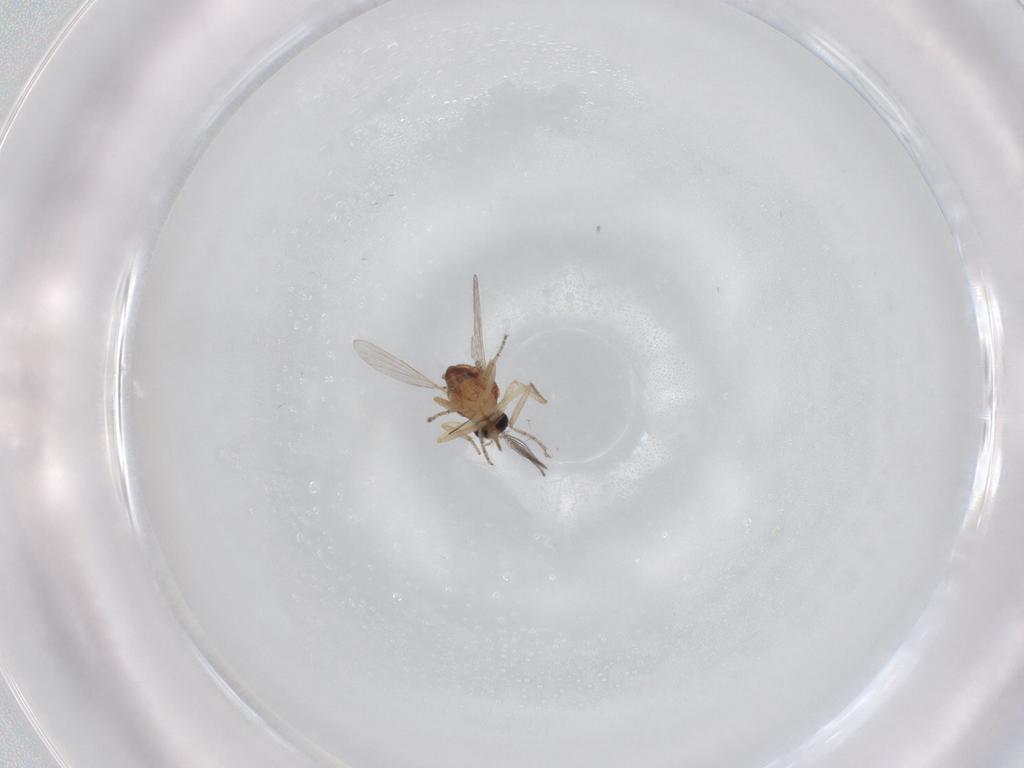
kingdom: Animalia
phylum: Arthropoda
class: Insecta
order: Diptera
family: Ceratopogonidae
